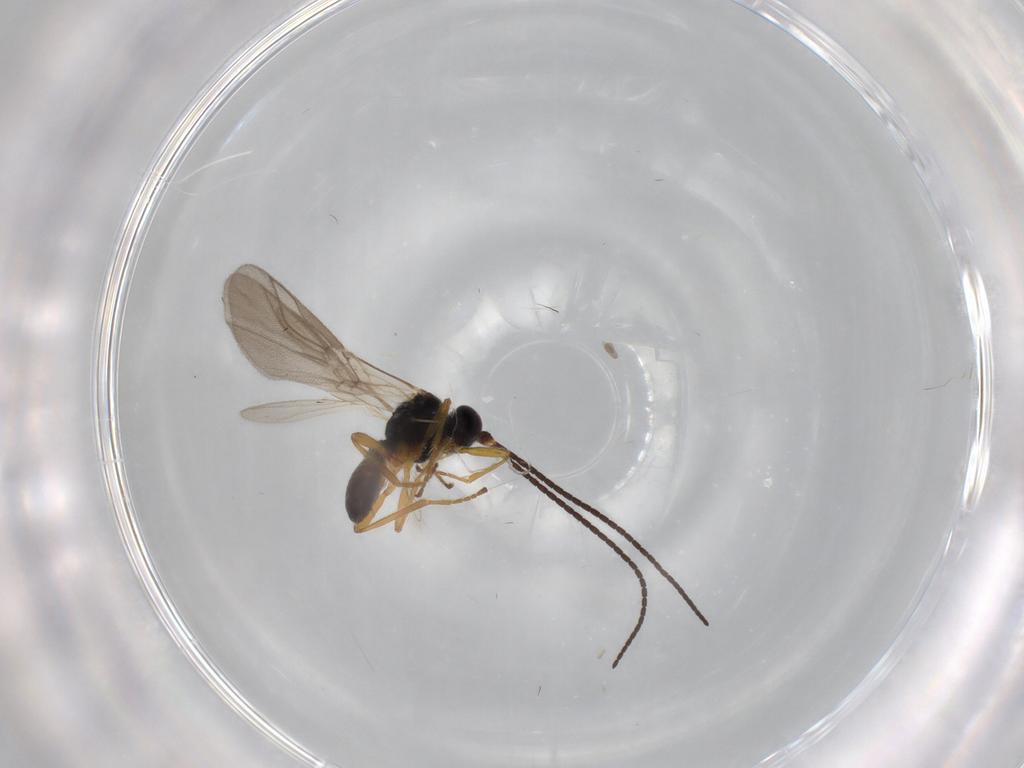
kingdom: Animalia
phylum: Arthropoda
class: Insecta
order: Hymenoptera
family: Braconidae
